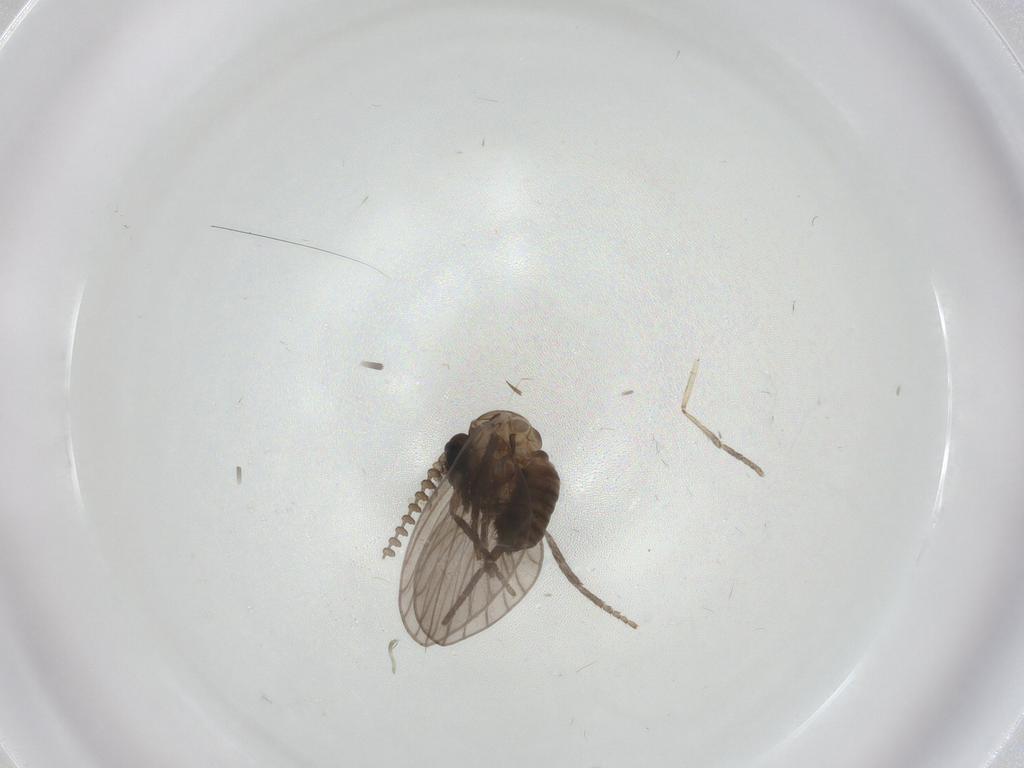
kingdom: Animalia
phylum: Arthropoda
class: Insecta
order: Diptera
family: Psychodidae
